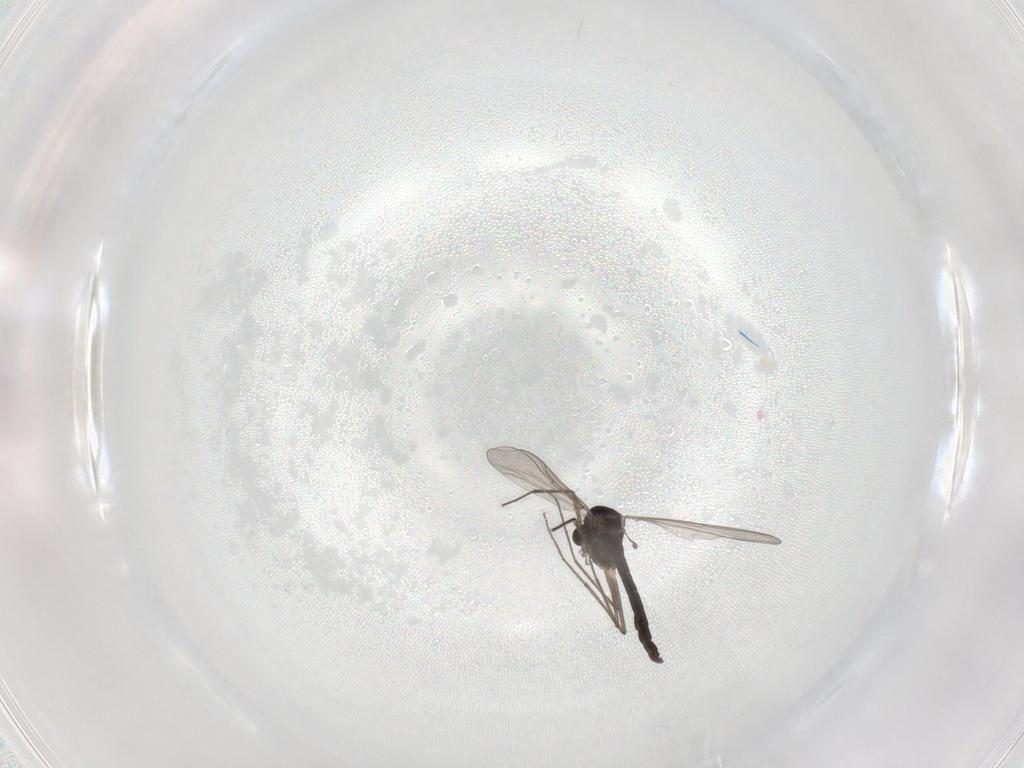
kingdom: Animalia
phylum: Arthropoda
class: Insecta
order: Diptera
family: Chironomidae
